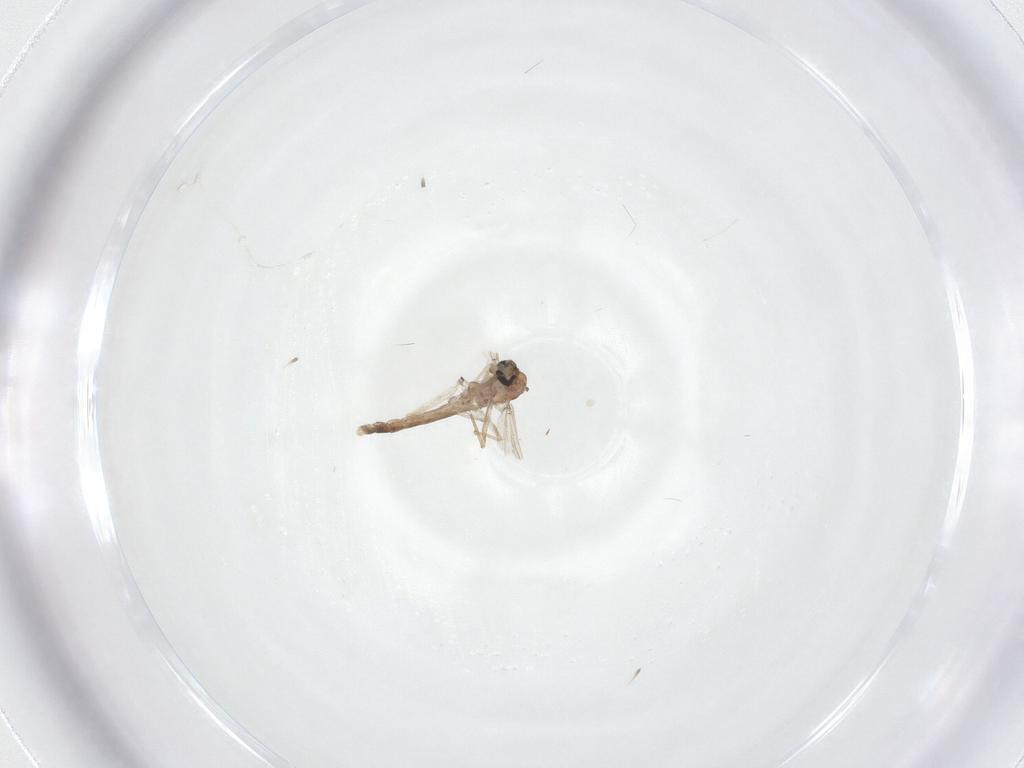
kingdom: Animalia
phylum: Arthropoda
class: Insecta
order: Diptera
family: Chironomidae
